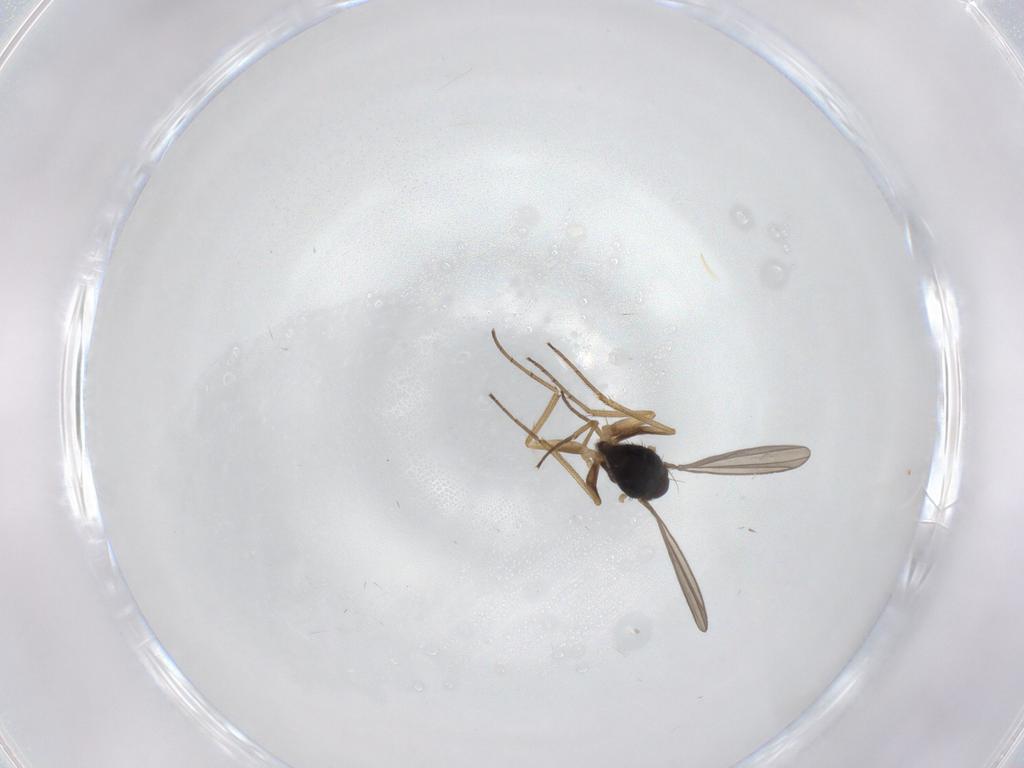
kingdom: Animalia
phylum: Arthropoda
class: Insecta
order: Diptera
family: Dolichopodidae
